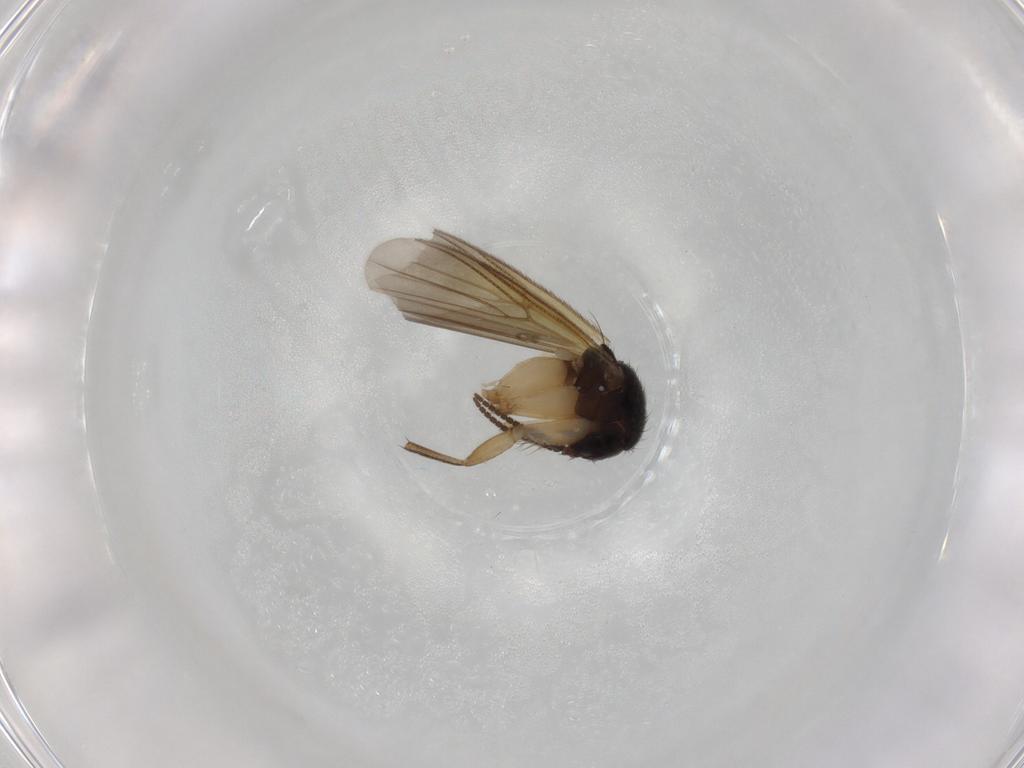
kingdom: Animalia
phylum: Arthropoda
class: Insecta
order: Diptera
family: Mycetophilidae
